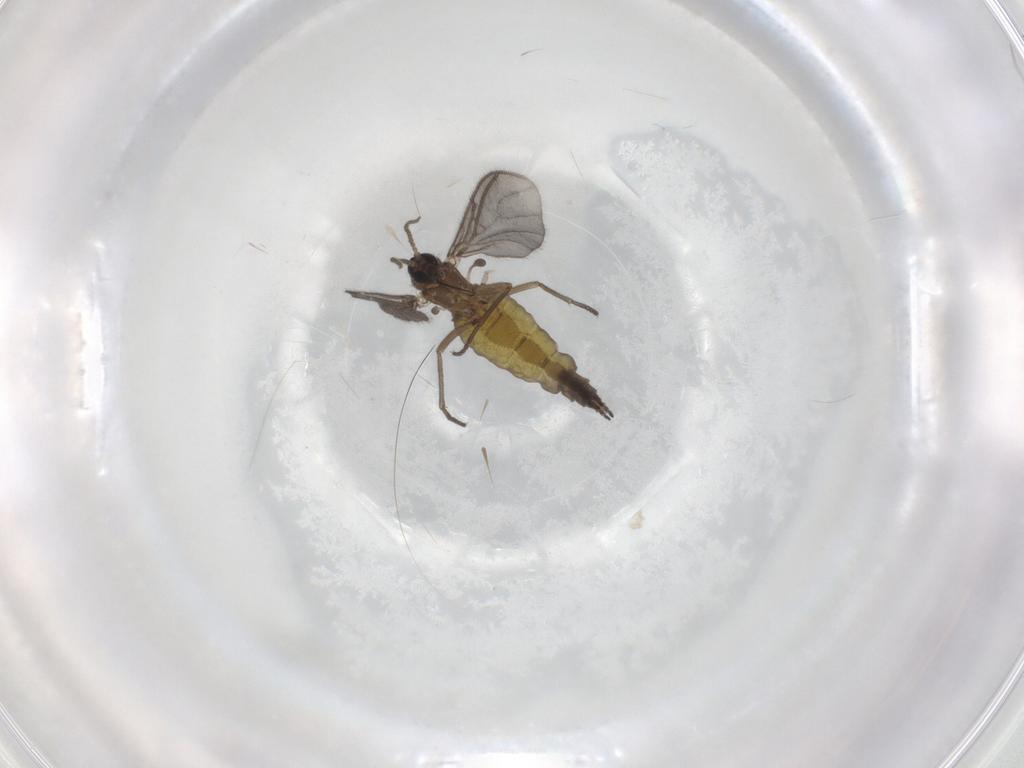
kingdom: Animalia
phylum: Arthropoda
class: Insecta
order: Diptera
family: Sciaridae
